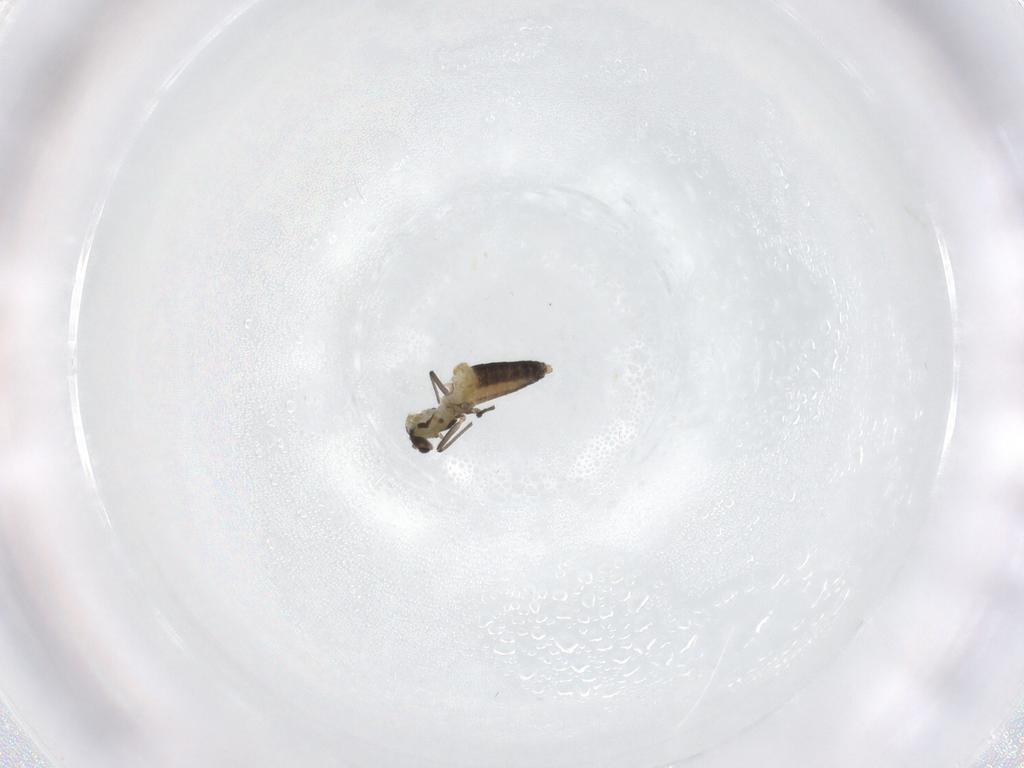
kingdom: Animalia
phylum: Arthropoda
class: Insecta
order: Diptera
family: Chironomidae
